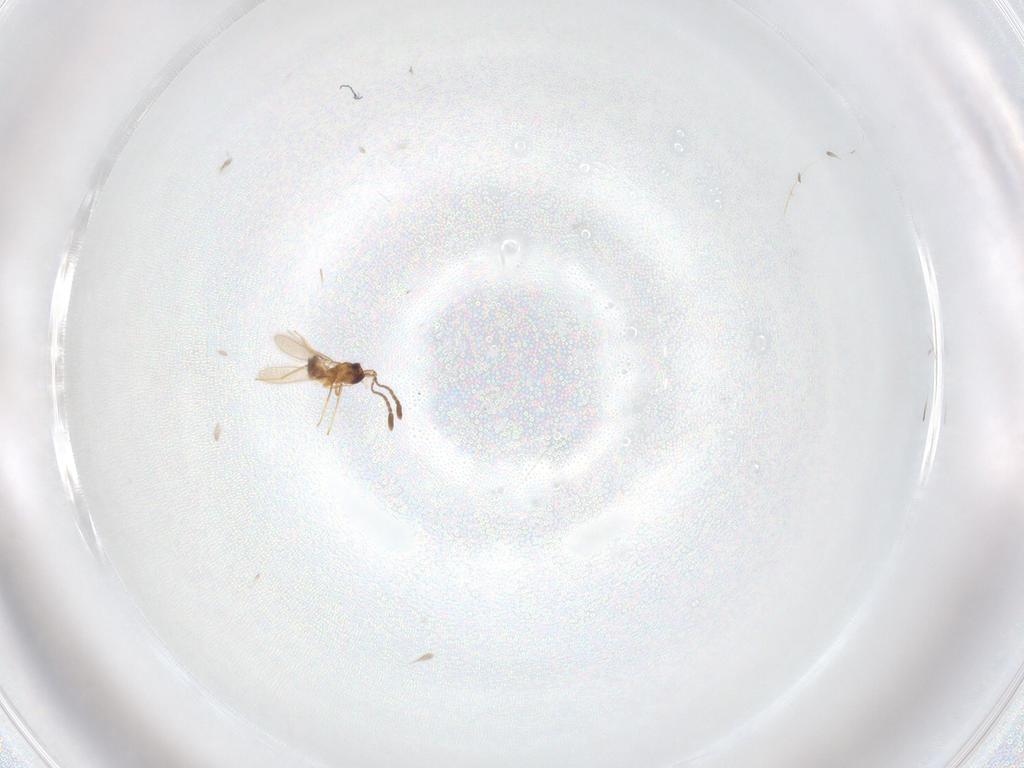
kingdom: Animalia
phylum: Arthropoda
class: Insecta
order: Hymenoptera
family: Mymaridae
